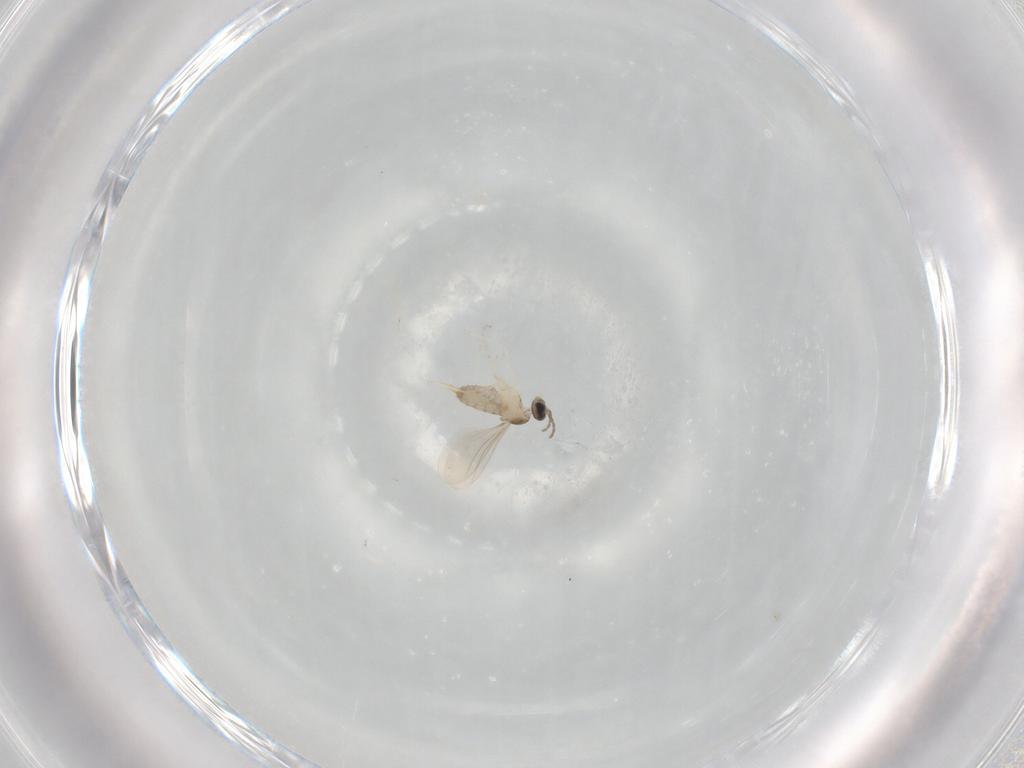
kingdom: Animalia
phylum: Arthropoda
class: Insecta
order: Diptera
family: Cecidomyiidae
